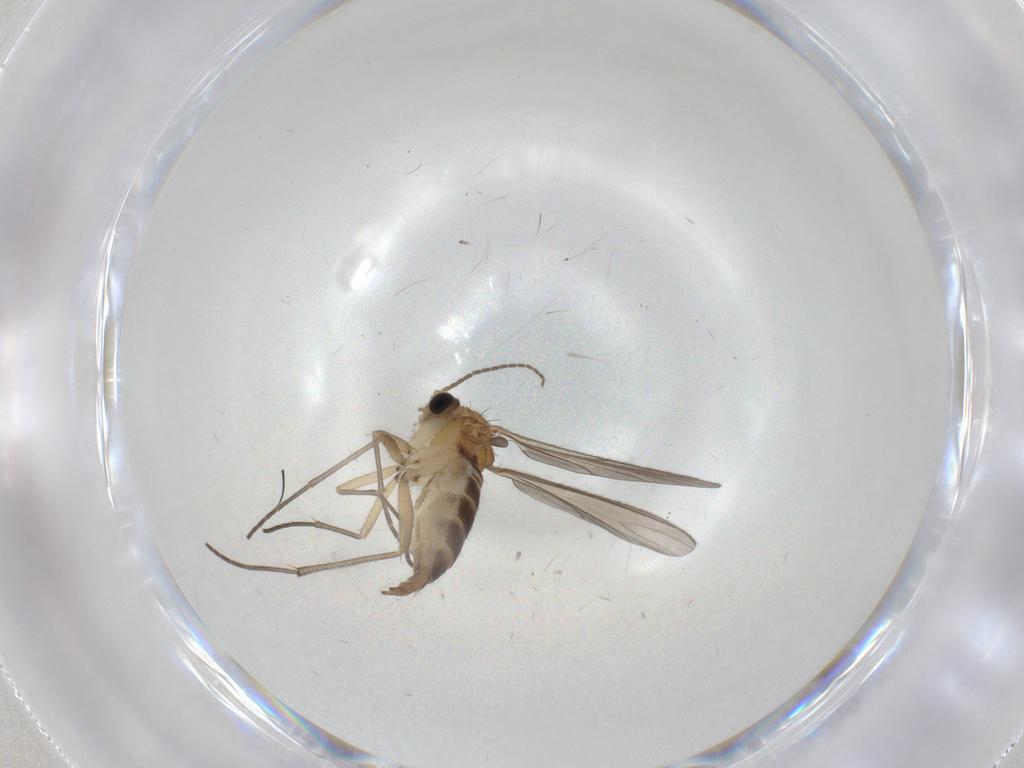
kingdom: Animalia
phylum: Arthropoda
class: Insecta
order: Diptera
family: Sciaridae
